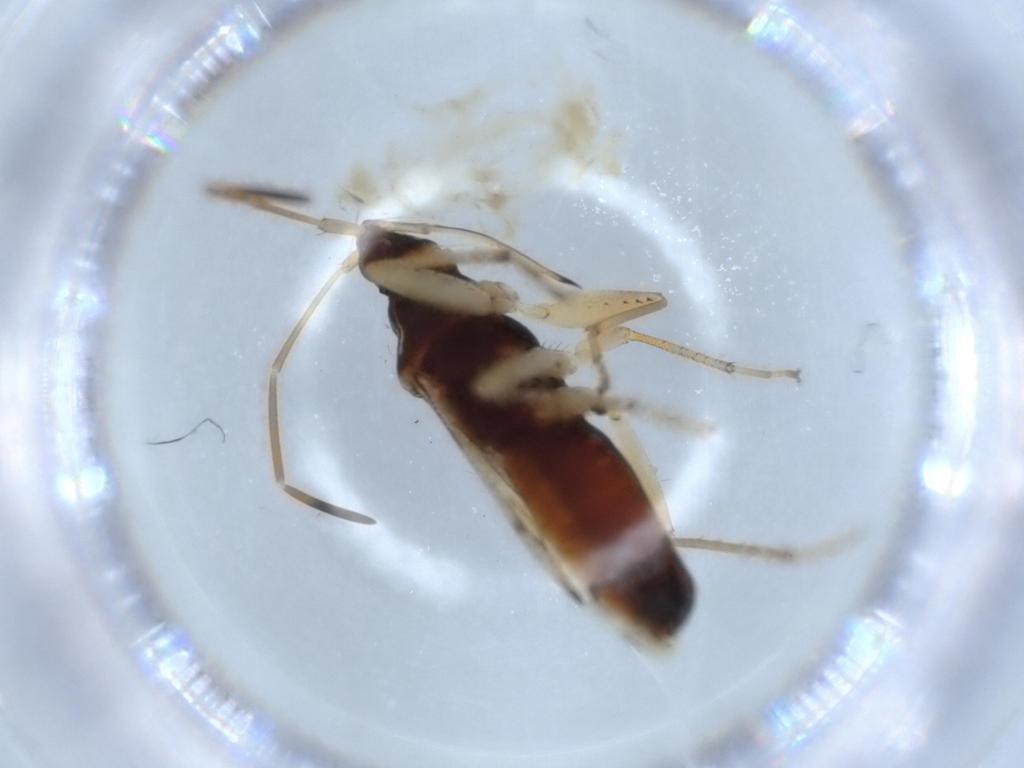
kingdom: Animalia
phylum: Arthropoda
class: Insecta
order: Hemiptera
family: Rhyparochromidae
